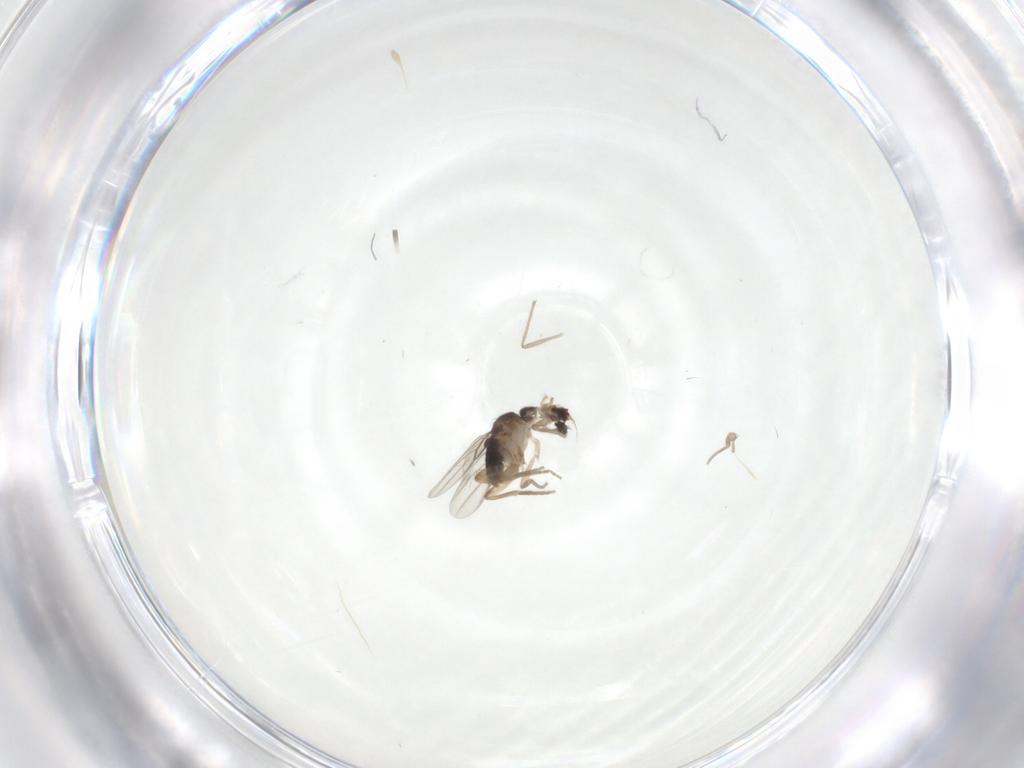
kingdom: Animalia
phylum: Arthropoda
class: Insecta
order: Diptera
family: Chironomidae
